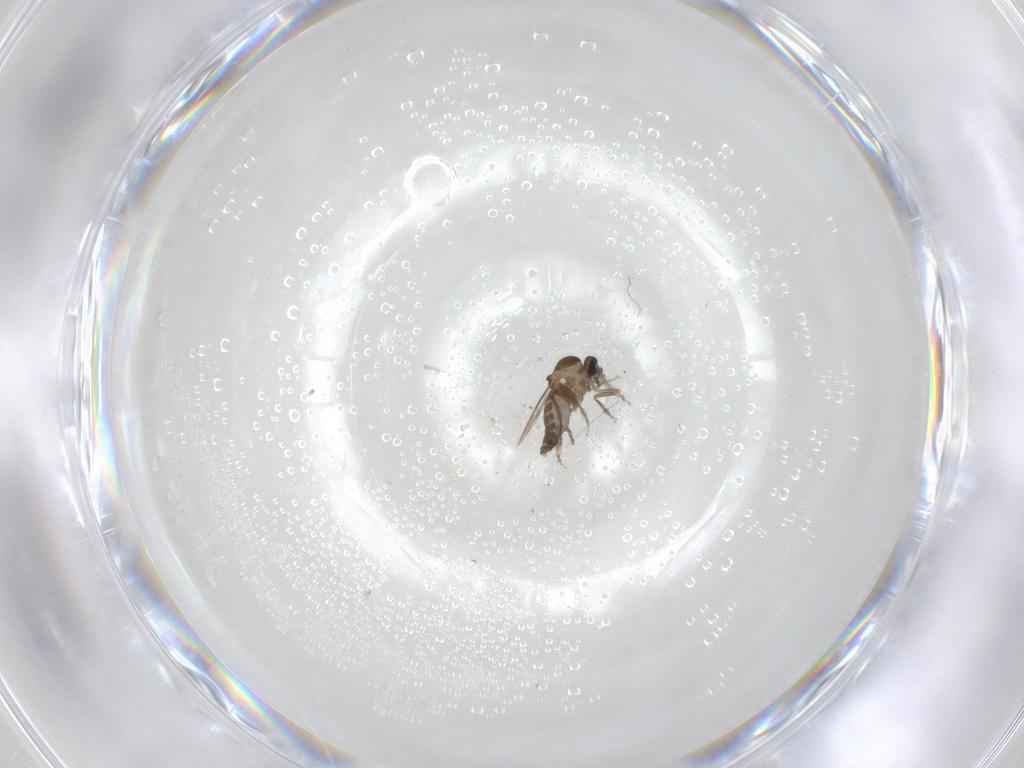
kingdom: Animalia
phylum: Arthropoda
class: Insecta
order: Diptera
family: Ceratopogonidae
